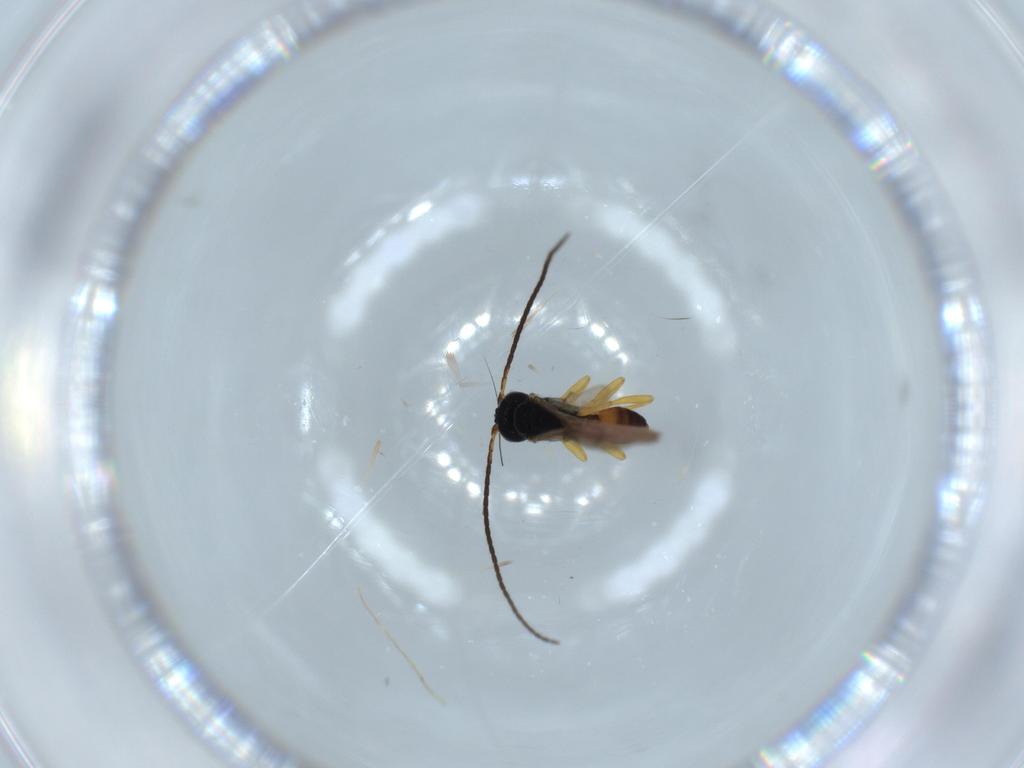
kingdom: Animalia
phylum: Arthropoda
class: Insecta
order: Hymenoptera
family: Braconidae
